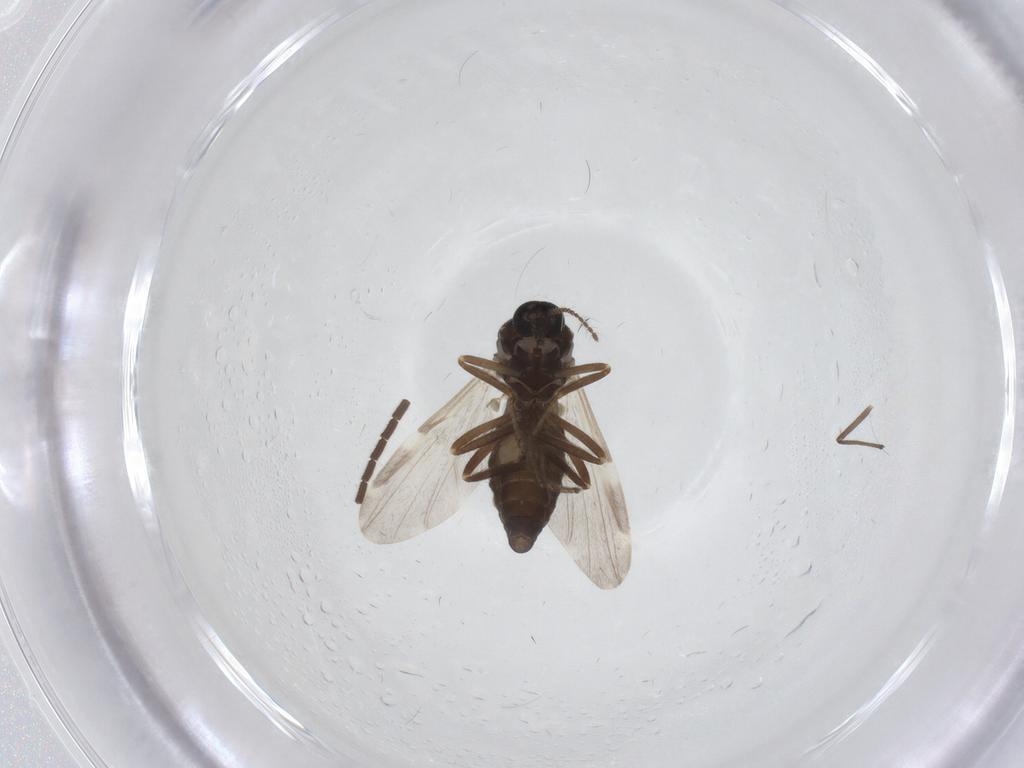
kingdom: Animalia
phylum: Arthropoda
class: Insecta
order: Diptera
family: Ceratopogonidae
